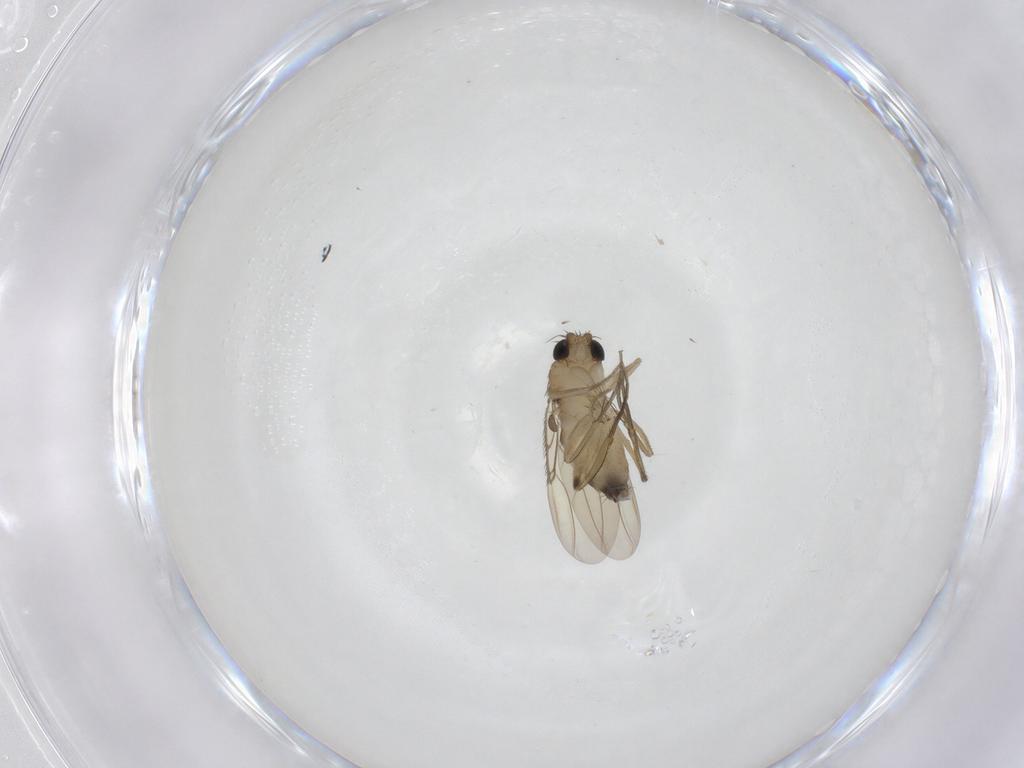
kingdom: Animalia
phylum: Arthropoda
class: Insecta
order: Diptera
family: Phoridae
